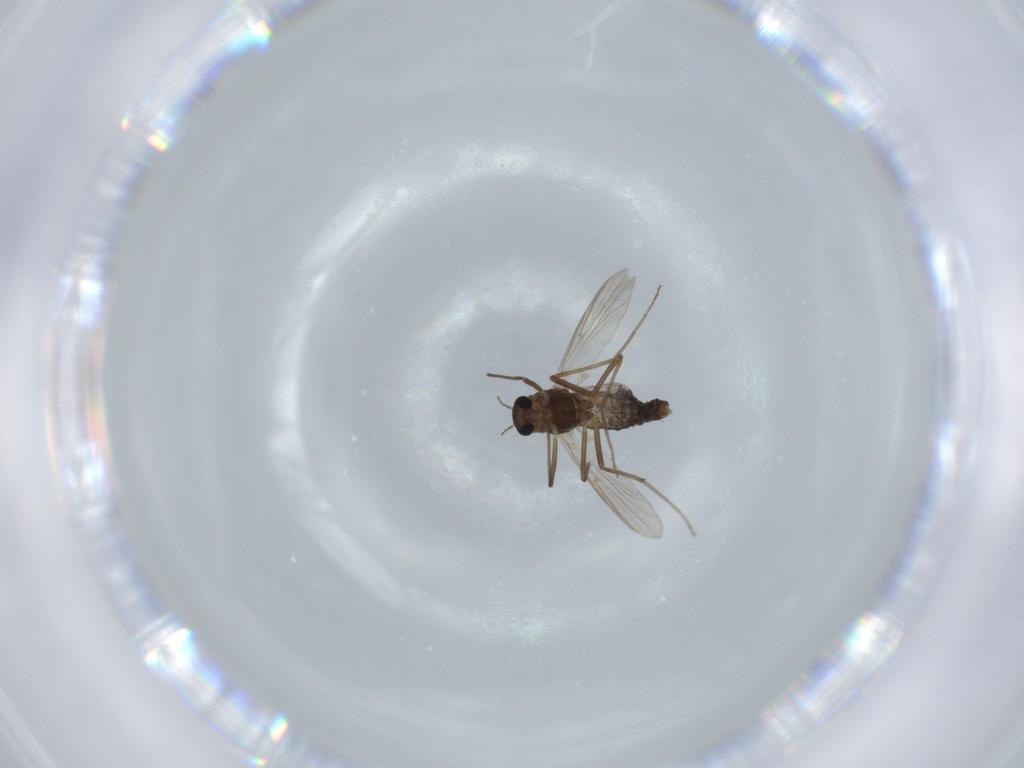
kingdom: Animalia
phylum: Arthropoda
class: Insecta
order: Diptera
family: Chironomidae
